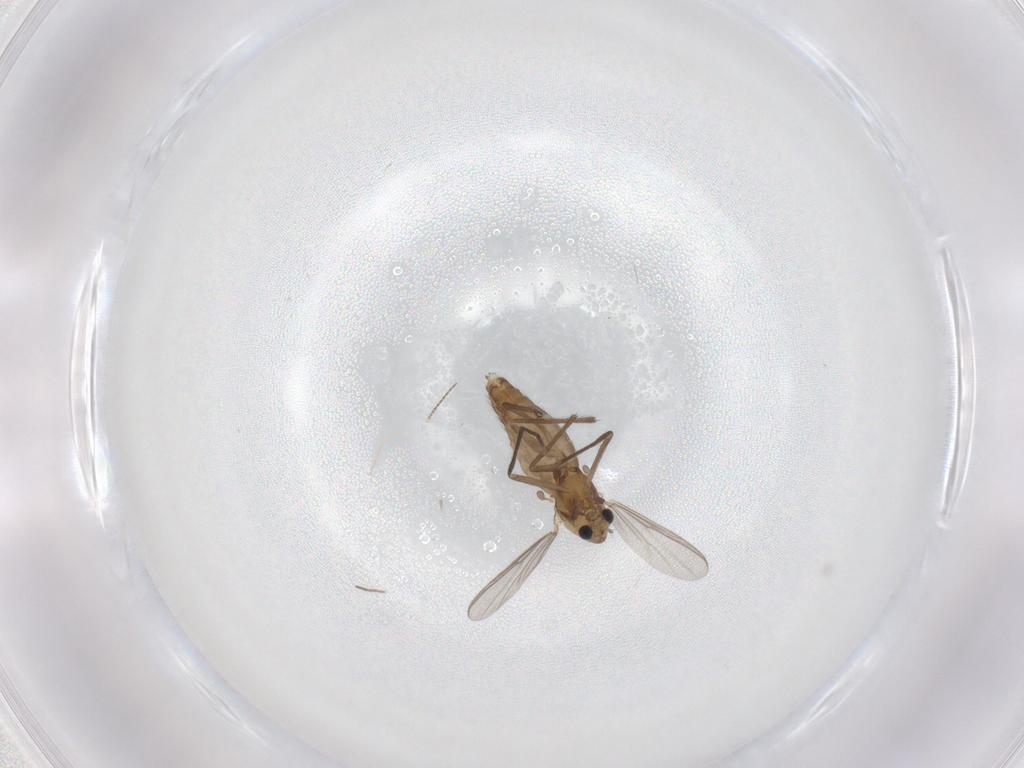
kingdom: Animalia
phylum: Arthropoda
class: Insecta
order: Diptera
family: Chironomidae
